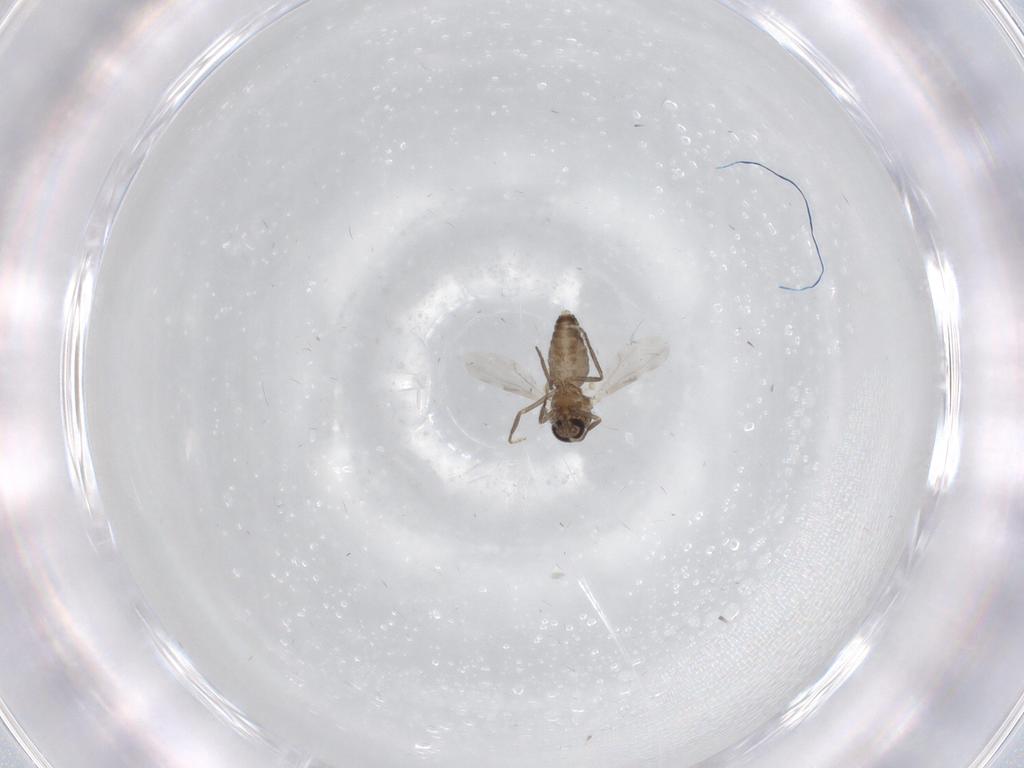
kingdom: Animalia
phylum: Arthropoda
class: Insecta
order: Diptera
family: Ceratopogonidae
